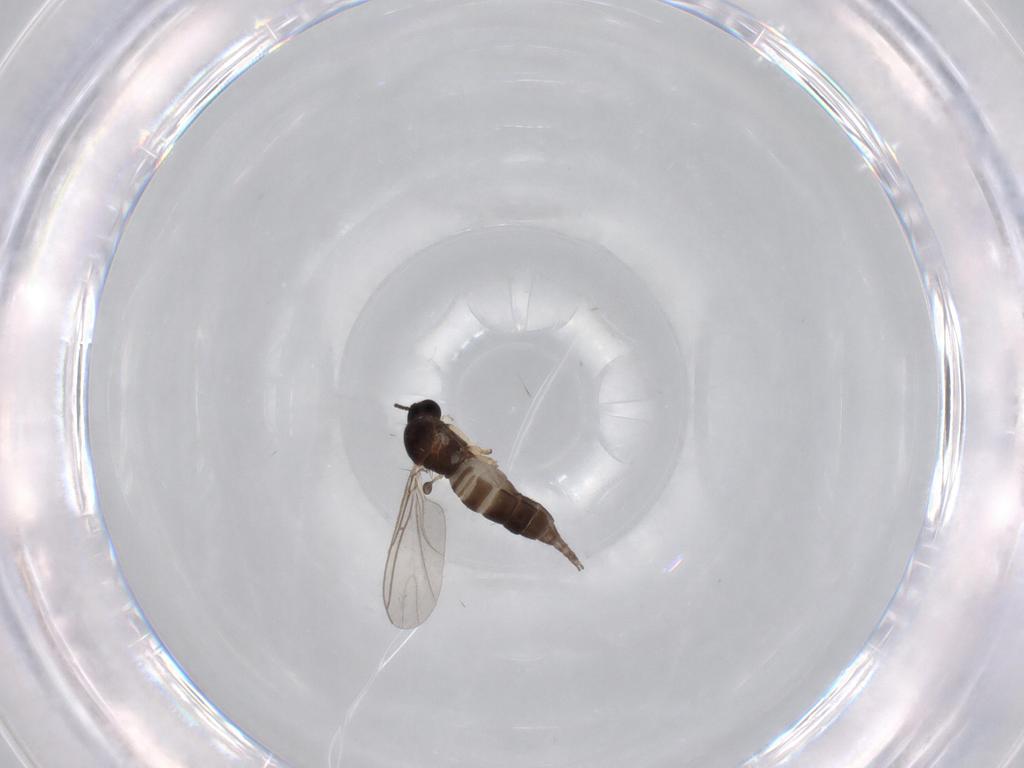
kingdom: Animalia
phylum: Arthropoda
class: Insecta
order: Diptera
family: Sciaridae
